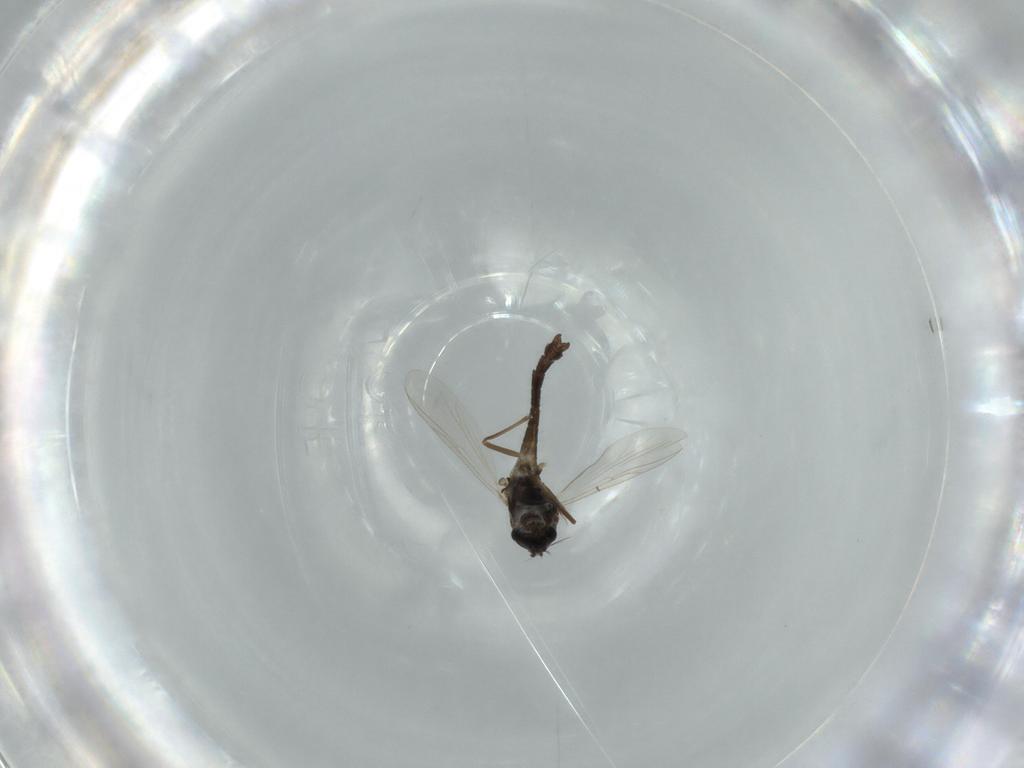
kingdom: Animalia
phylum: Arthropoda
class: Insecta
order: Diptera
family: Chironomidae
